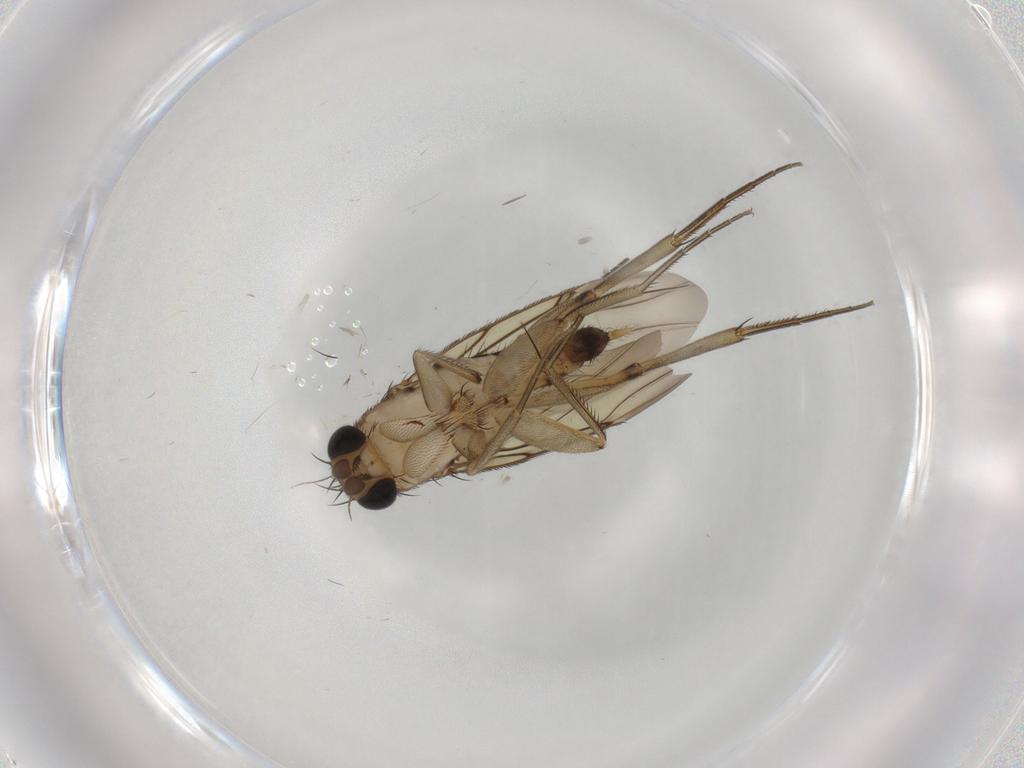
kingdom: Animalia
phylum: Arthropoda
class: Insecta
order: Diptera
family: Phoridae
